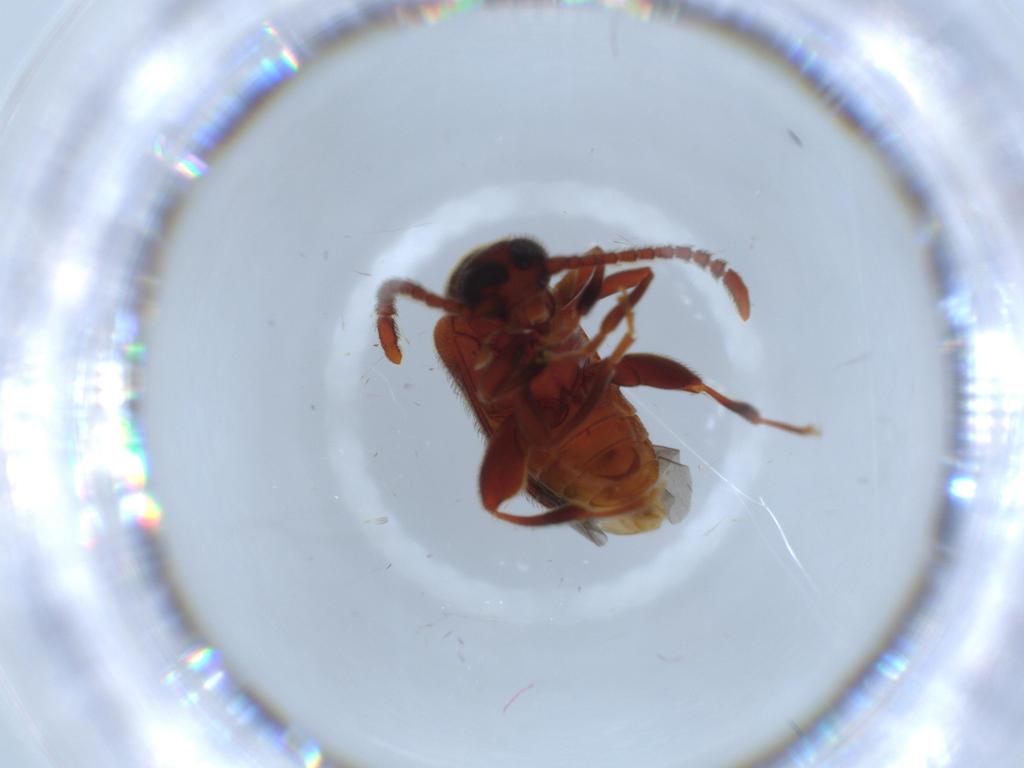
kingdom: Animalia
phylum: Arthropoda
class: Insecta
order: Coleoptera
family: Aderidae
